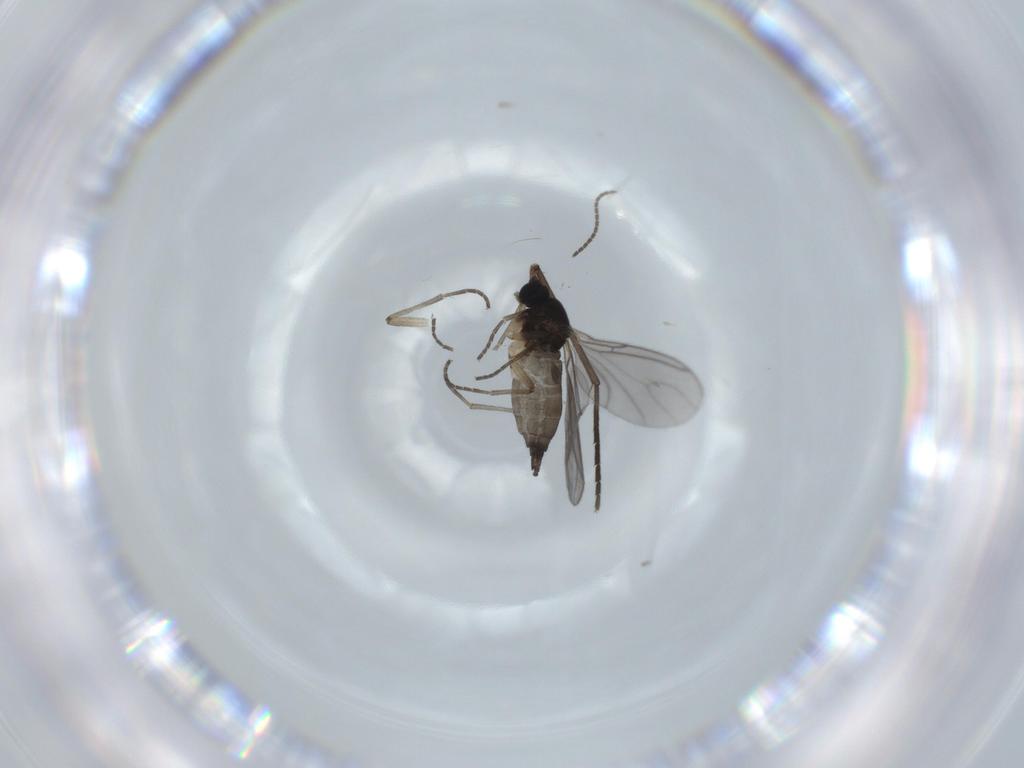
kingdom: Animalia
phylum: Arthropoda
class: Insecta
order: Diptera
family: Sciaridae
